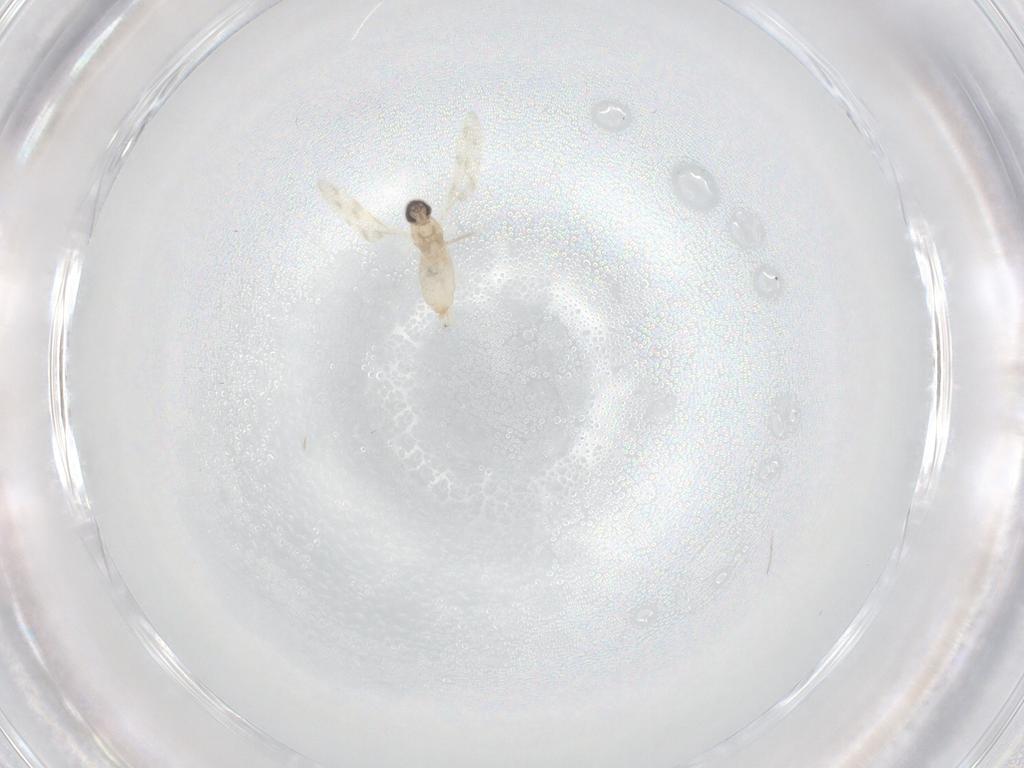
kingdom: Animalia
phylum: Arthropoda
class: Insecta
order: Diptera
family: Cecidomyiidae
